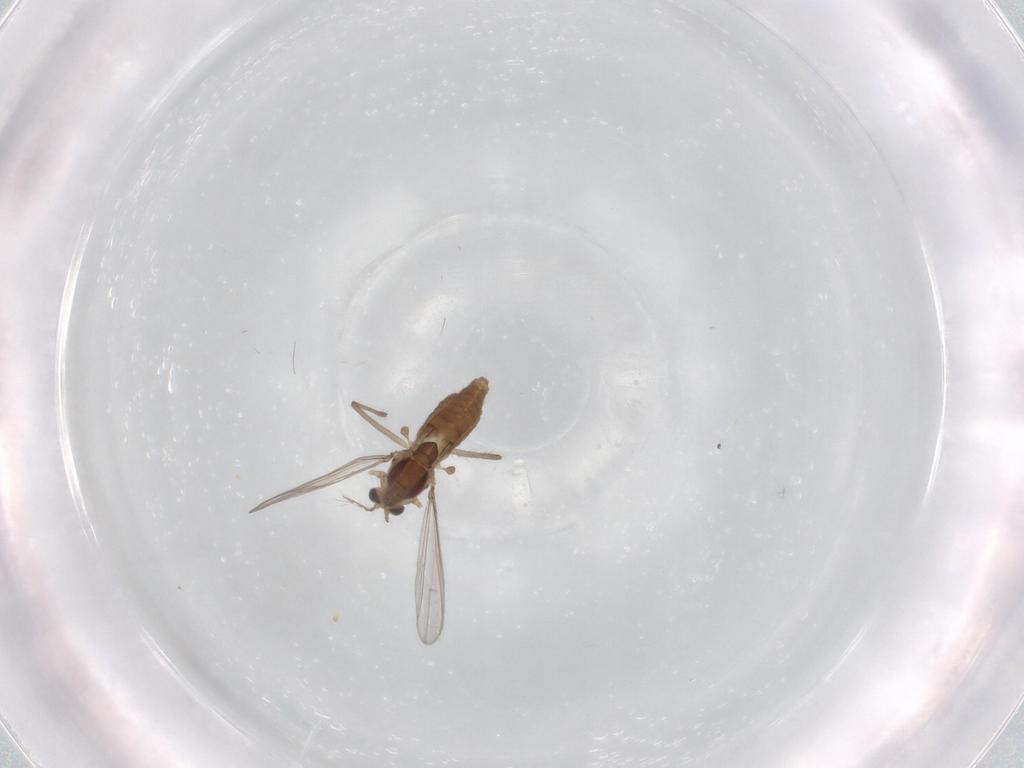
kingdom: Animalia
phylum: Arthropoda
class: Insecta
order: Diptera
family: Chironomidae
